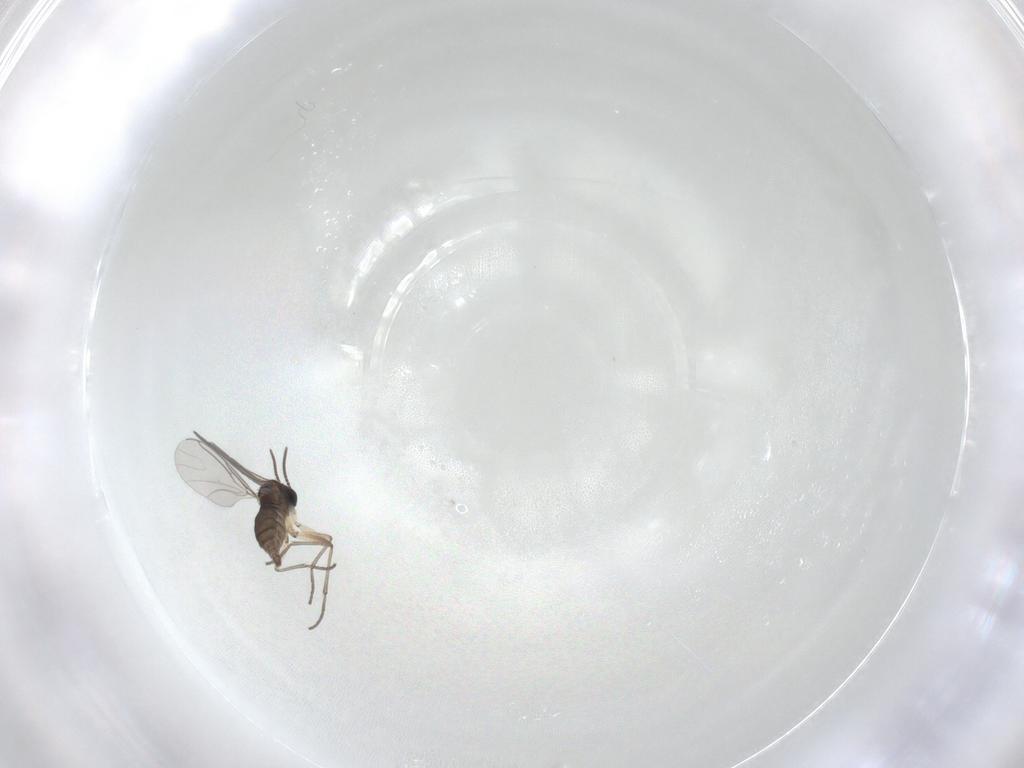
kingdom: Animalia
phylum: Arthropoda
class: Insecta
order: Diptera
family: Sciaridae
